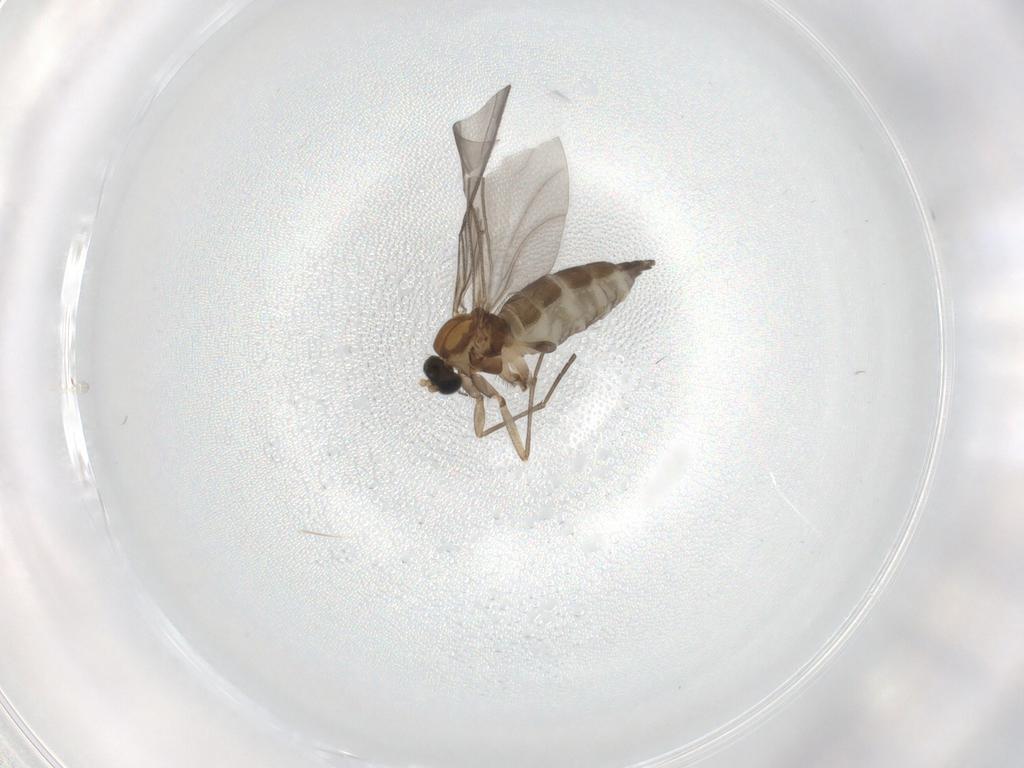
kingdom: Animalia
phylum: Arthropoda
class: Insecta
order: Diptera
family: Sciaridae
